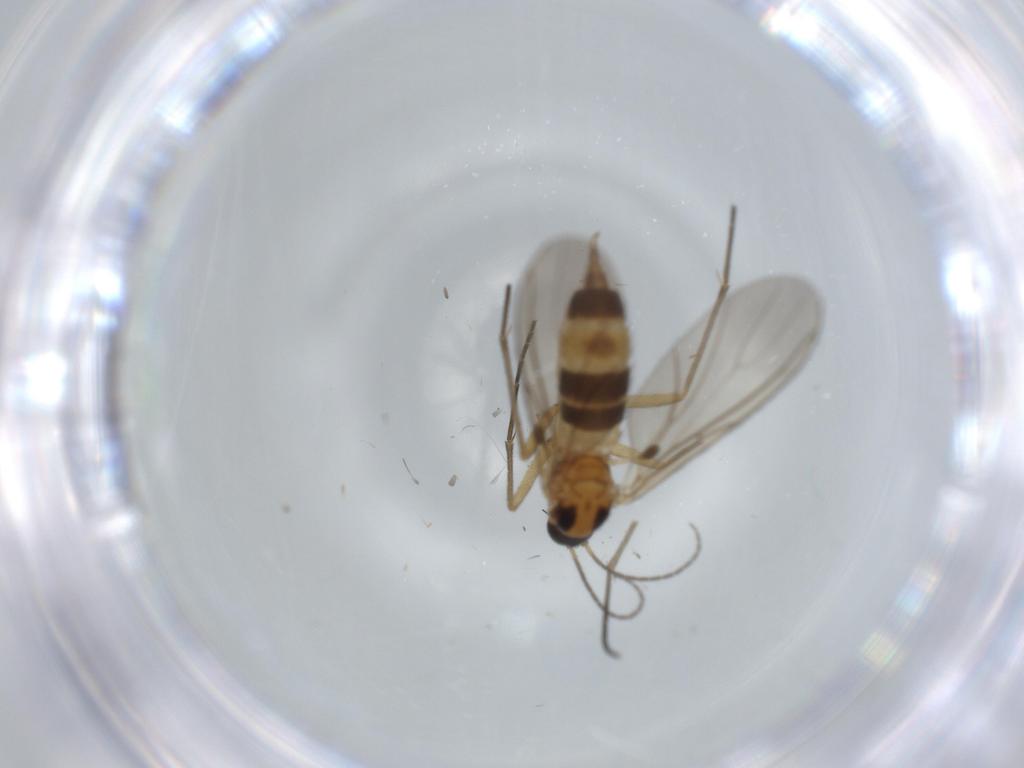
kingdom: Animalia
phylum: Arthropoda
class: Insecta
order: Diptera
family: Sciaridae
